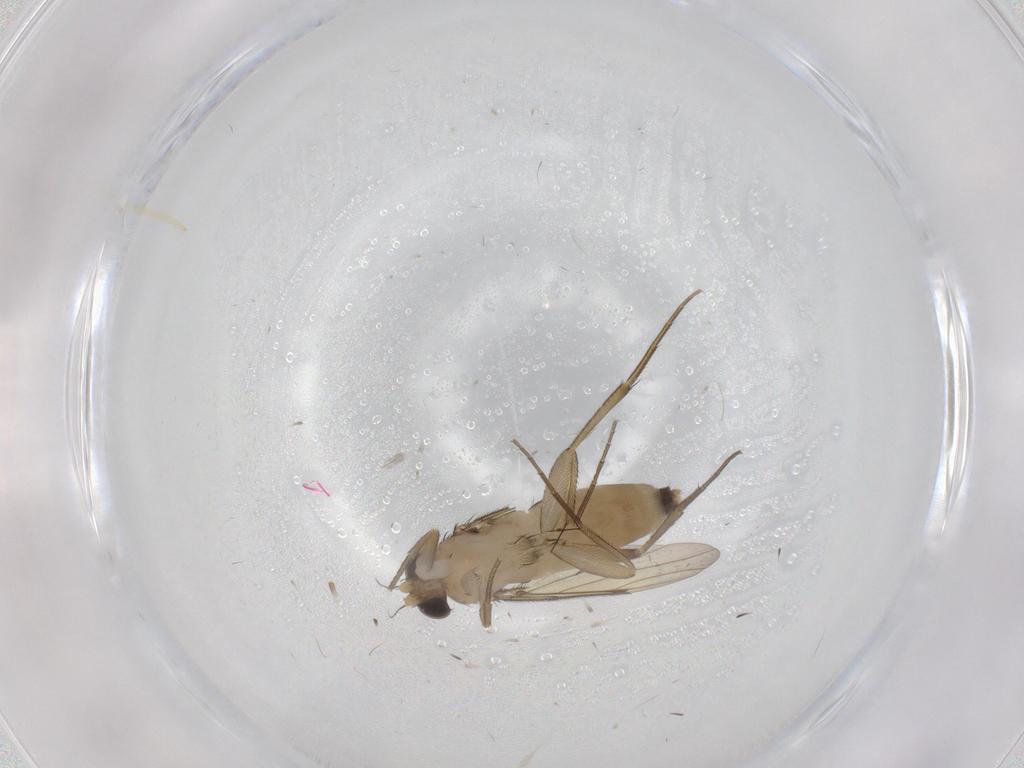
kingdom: Animalia
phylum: Arthropoda
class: Insecta
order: Diptera
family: Phoridae
